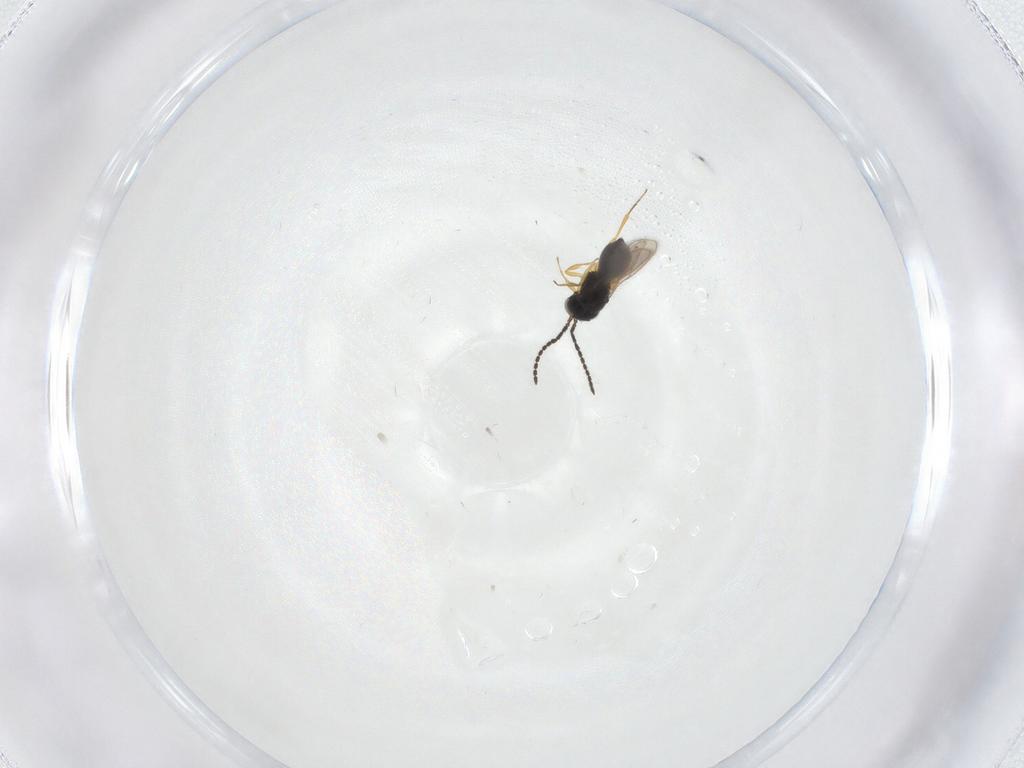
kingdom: Animalia
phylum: Arthropoda
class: Insecta
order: Hymenoptera
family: Scelionidae
